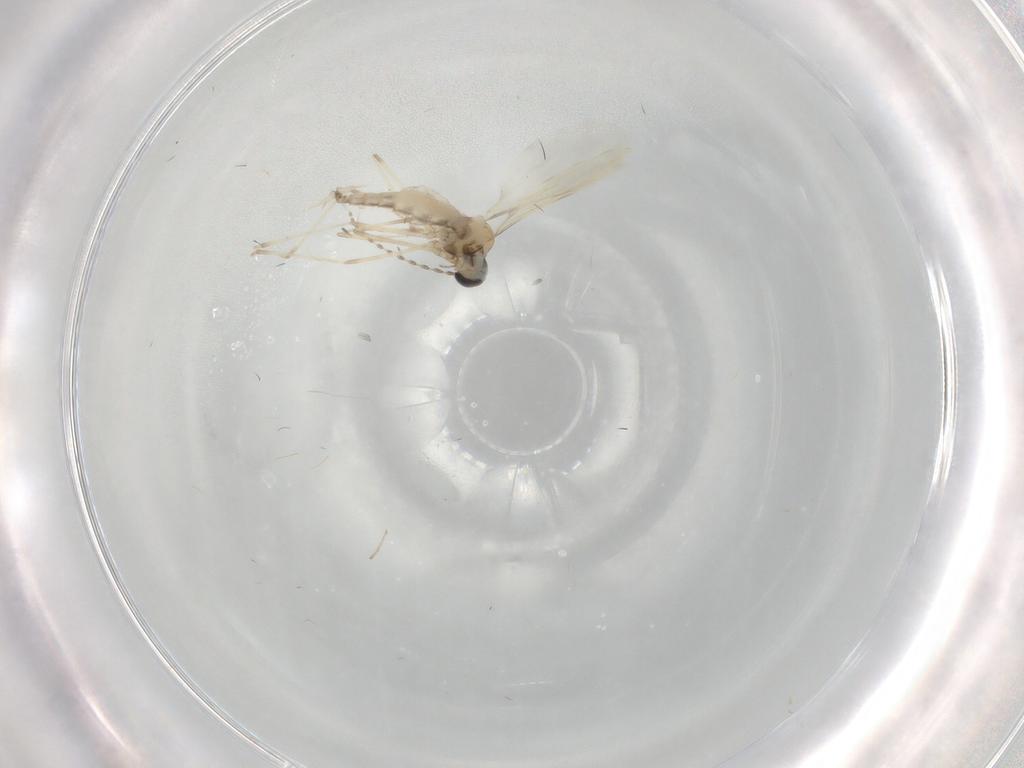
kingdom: Animalia
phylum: Arthropoda
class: Insecta
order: Diptera
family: Cecidomyiidae
